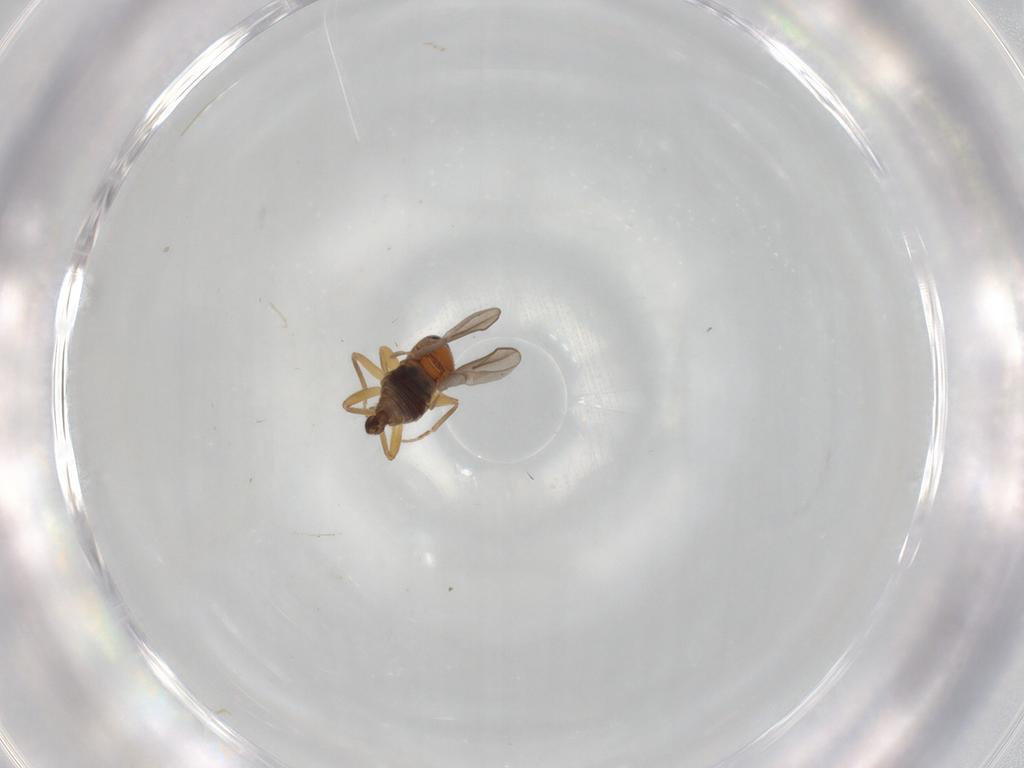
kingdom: Animalia
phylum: Arthropoda
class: Insecta
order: Diptera
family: Hybotidae
